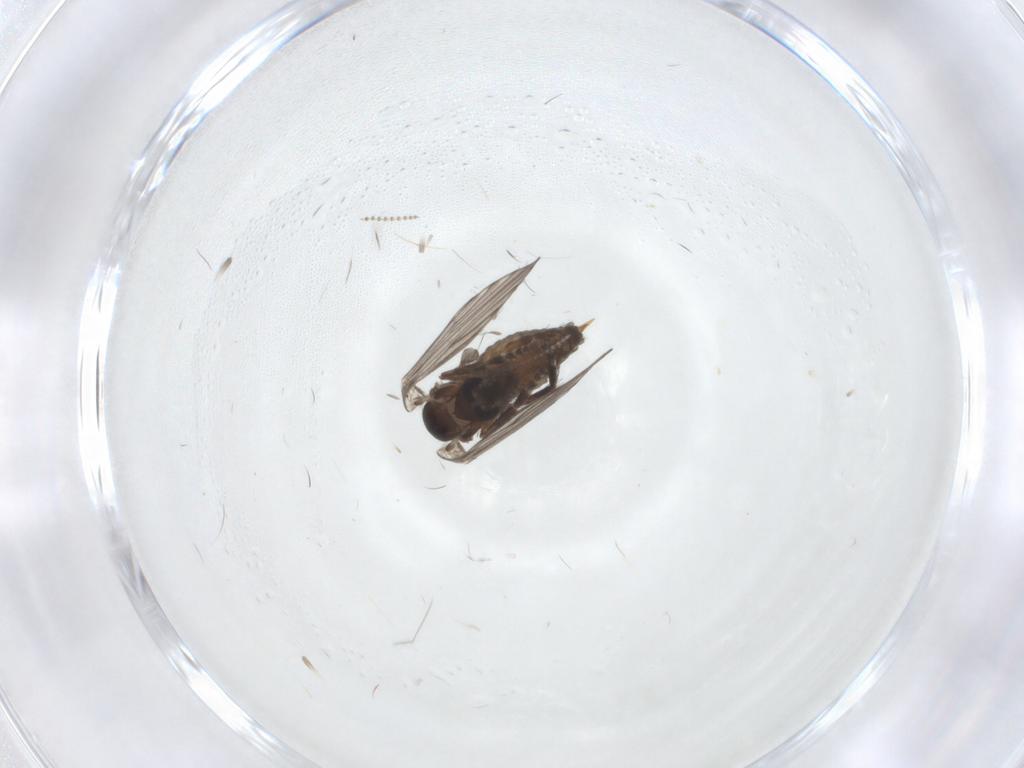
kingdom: Animalia
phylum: Arthropoda
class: Insecta
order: Diptera
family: Psychodidae
